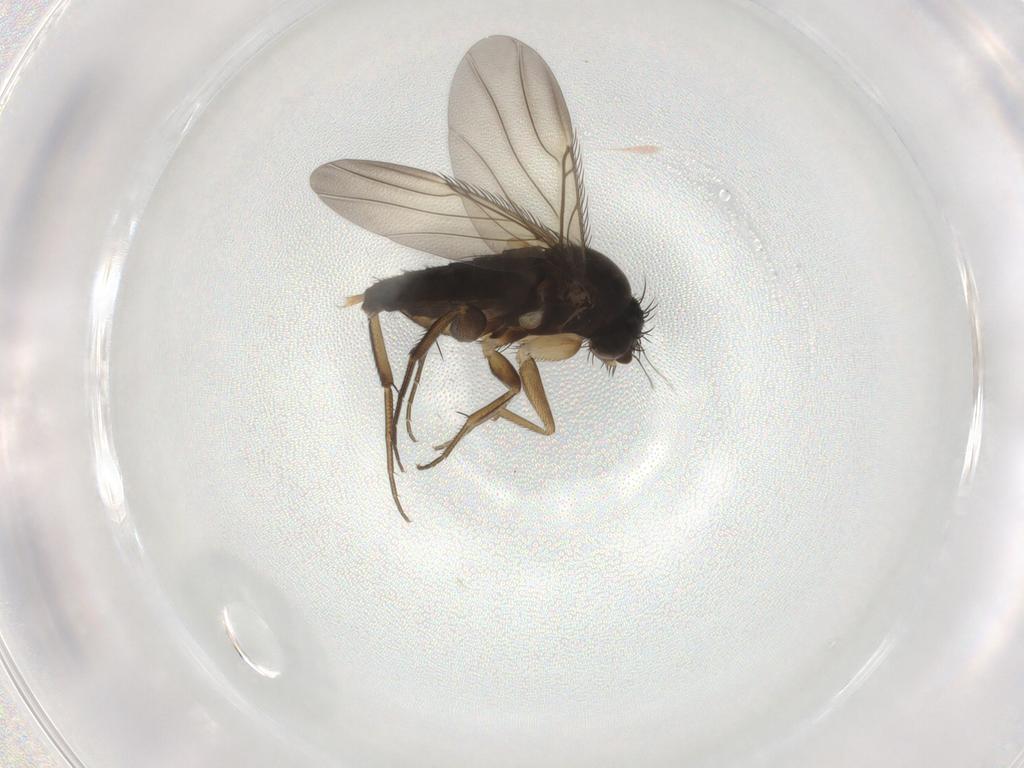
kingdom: Animalia
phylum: Arthropoda
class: Insecta
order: Diptera
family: Phoridae
